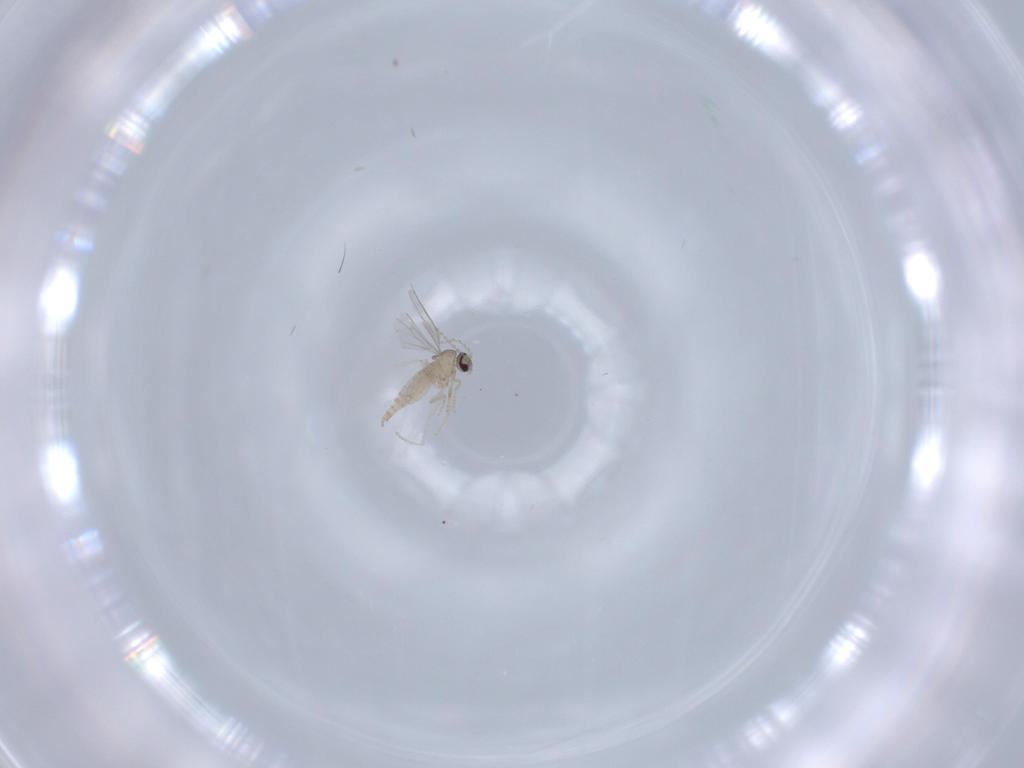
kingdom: Animalia
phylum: Arthropoda
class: Insecta
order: Diptera
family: Cecidomyiidae
